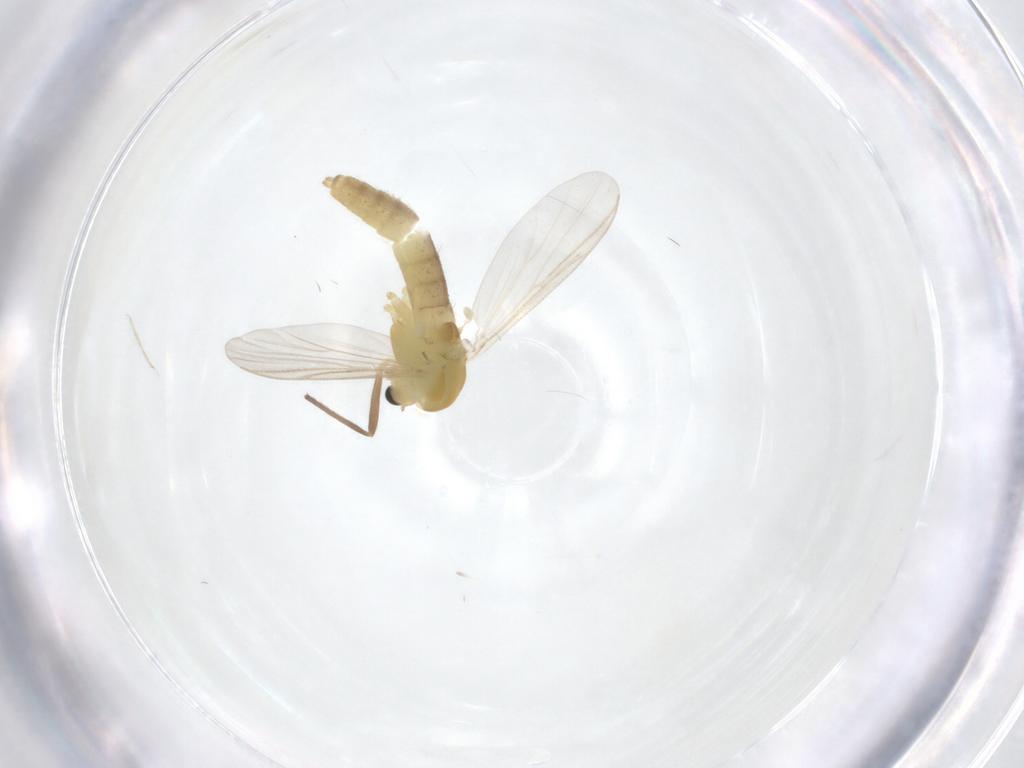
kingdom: Animalia
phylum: Arthropoda
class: Insecta
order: Diptera
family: Chironomidae
